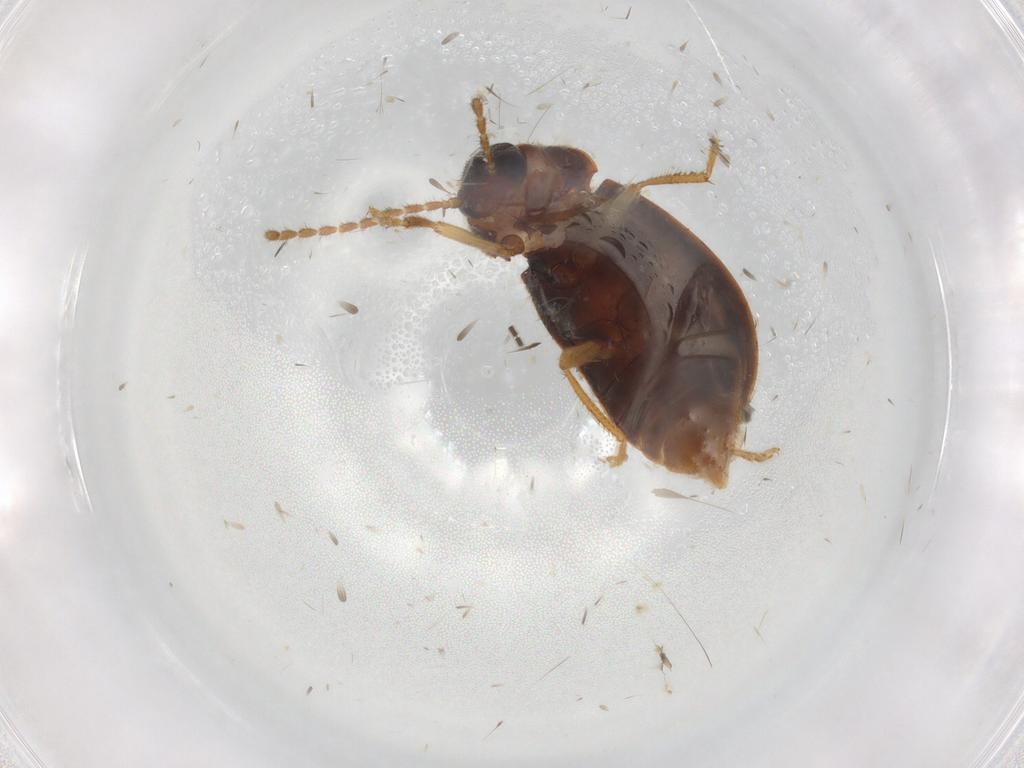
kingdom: Animalia
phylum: Arthropoda
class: Insecta
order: Coleoptera
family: Ptilodactylidae
